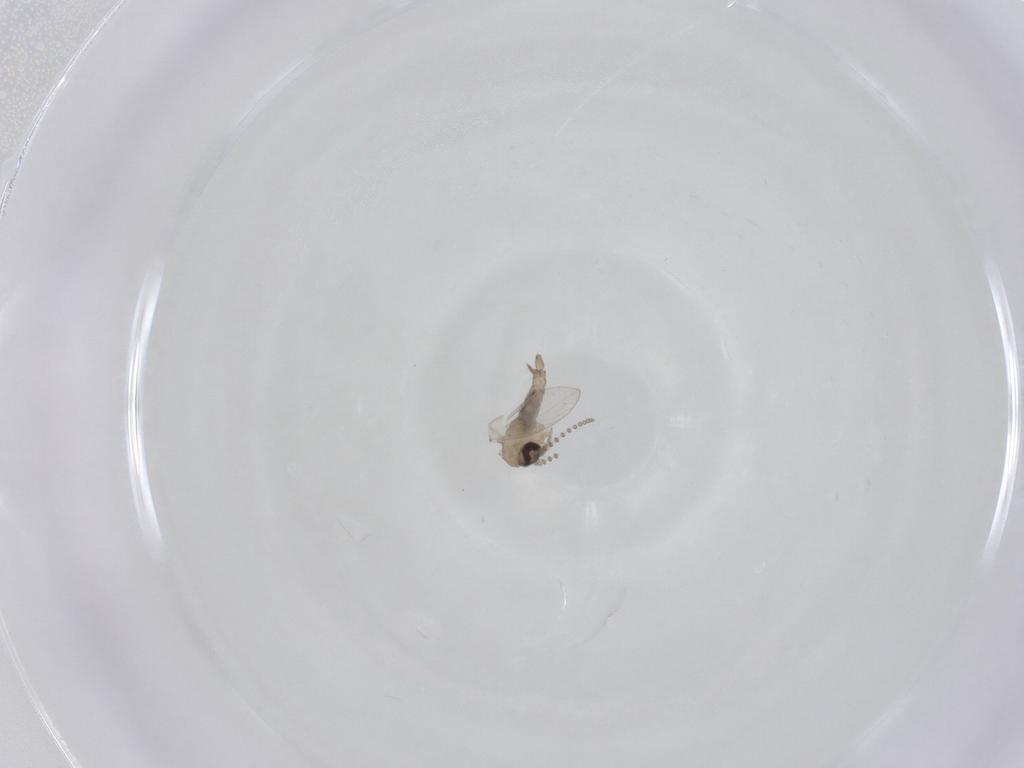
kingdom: Animalia
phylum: Arthropoda
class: Insecta
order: Diptera
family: Psychodidae
